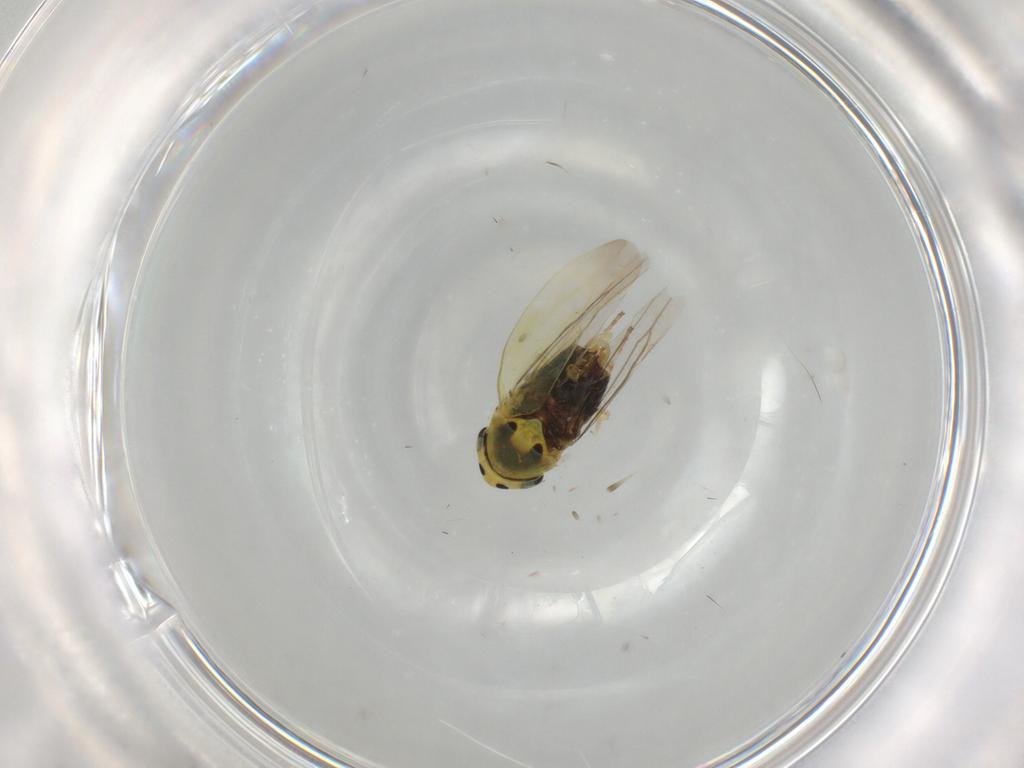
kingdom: Animalia
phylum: Arthropoda
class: Insecta
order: Hemiptera
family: Cicadellidae
